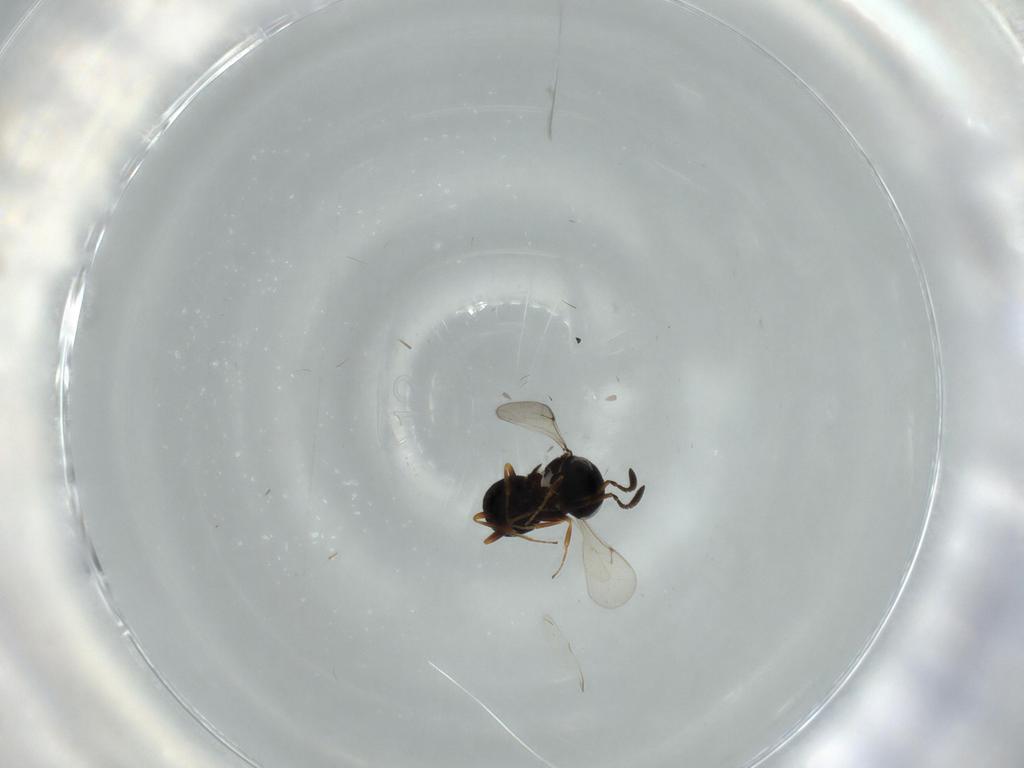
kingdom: Animalia
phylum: Arthropoda
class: Insecta
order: Hymenoptera
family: Scelionidae
